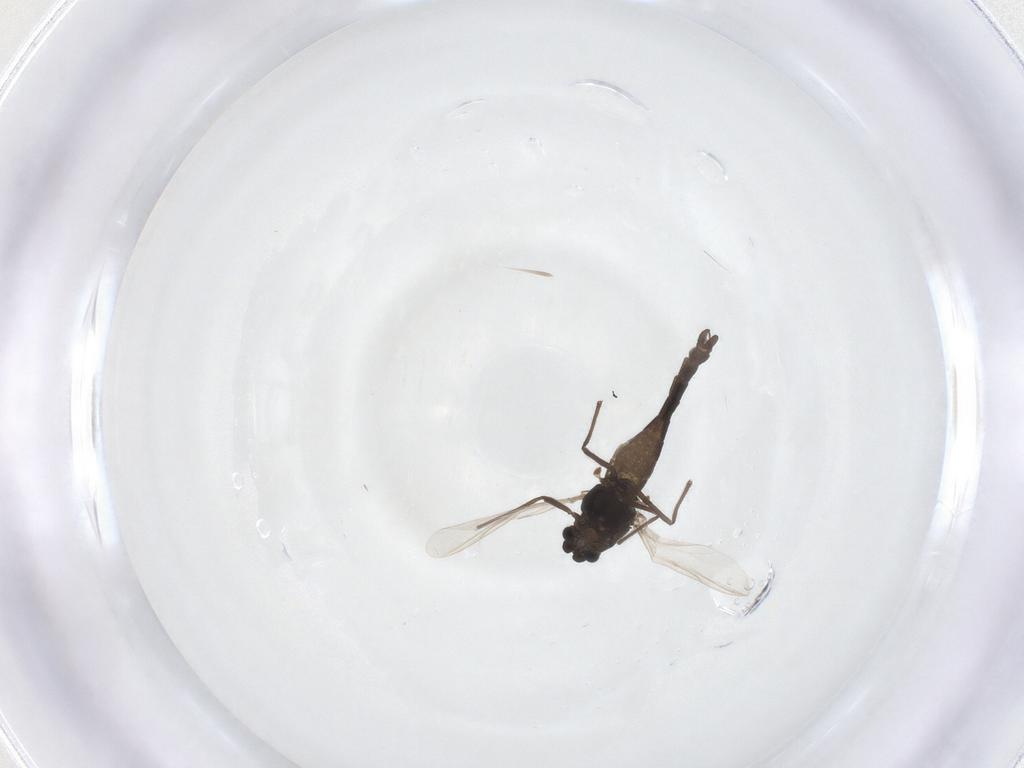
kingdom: Animalia
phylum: Arthropoda
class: Insecta
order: Diptera
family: Chironomidae
